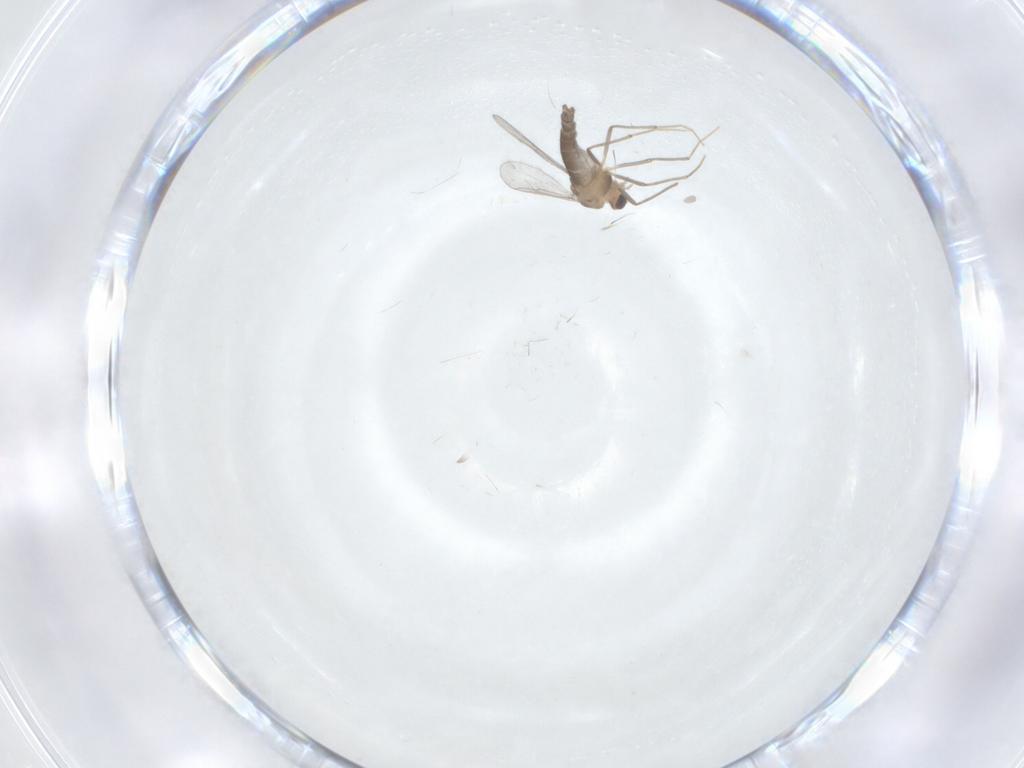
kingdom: Animalia
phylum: Arthropoda
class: Insecta
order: Diptera
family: Chironomidae
